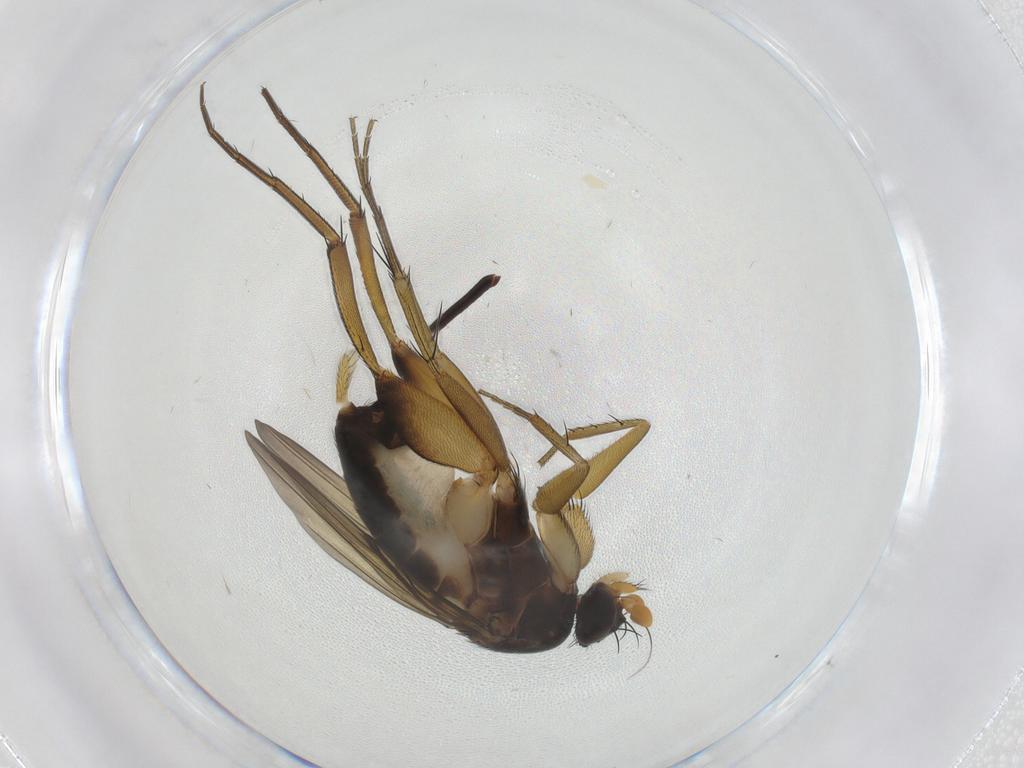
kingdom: Animalia
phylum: Arthropoda
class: Insecta
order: Diptera
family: Phoridae
